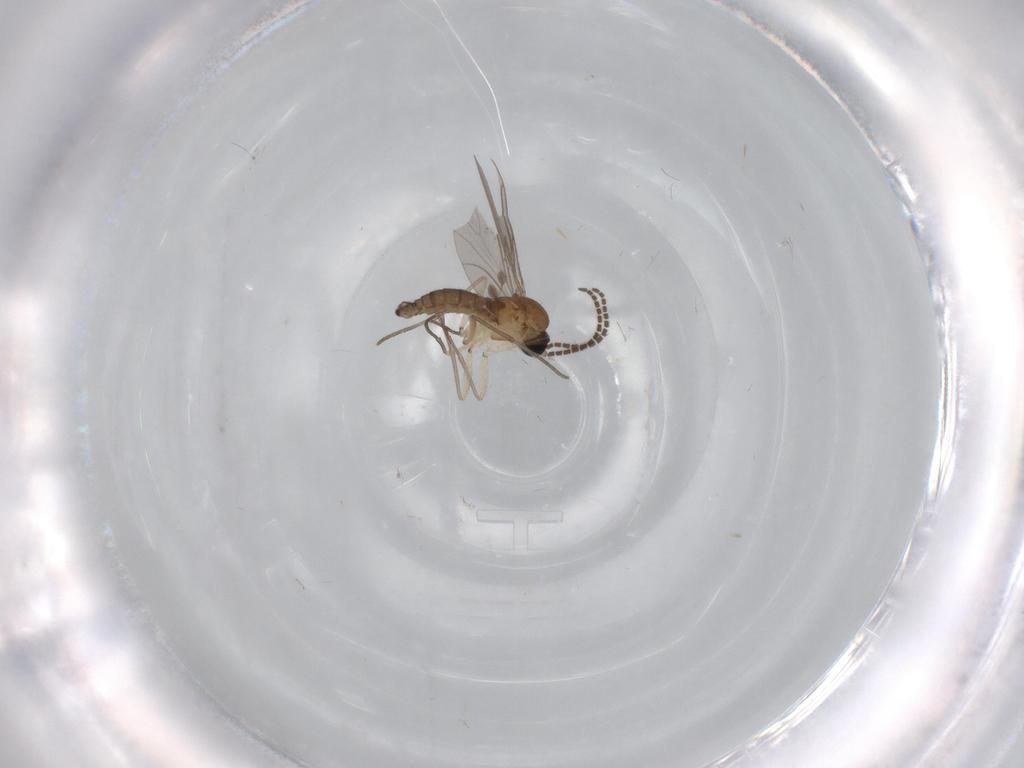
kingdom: Animalia
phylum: Arthropoda
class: Insecta
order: Diptera
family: Sciaridae
